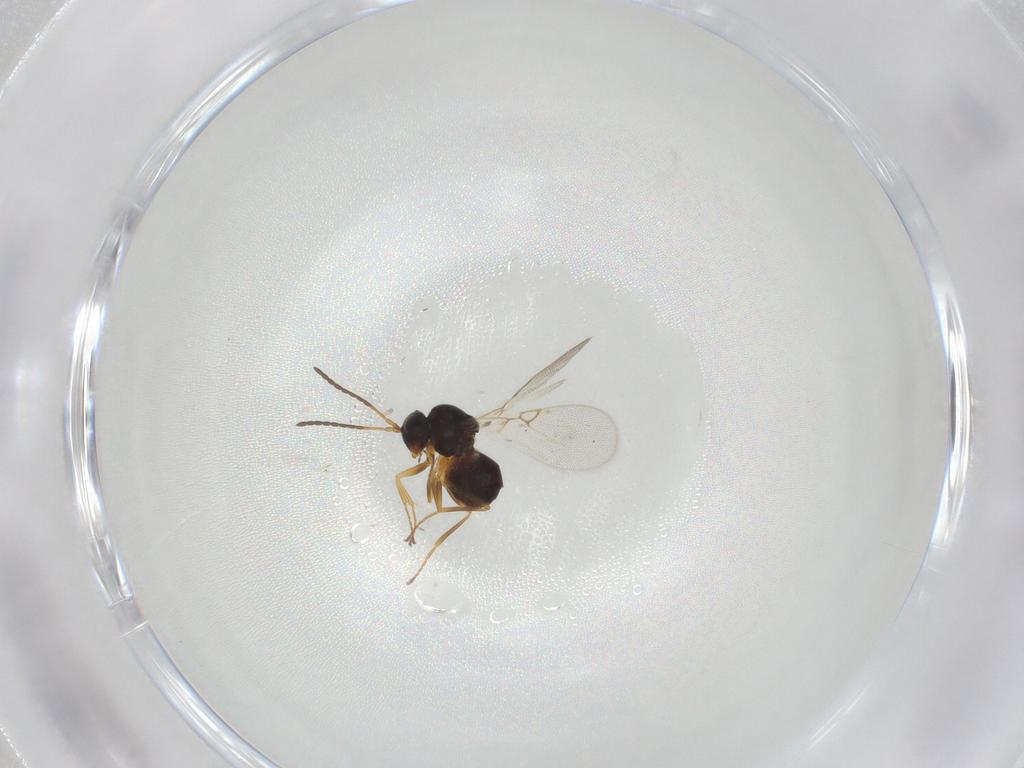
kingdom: Animalia
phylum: Arthropoda
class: Insecta
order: Hymenoptera
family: Figitidae
